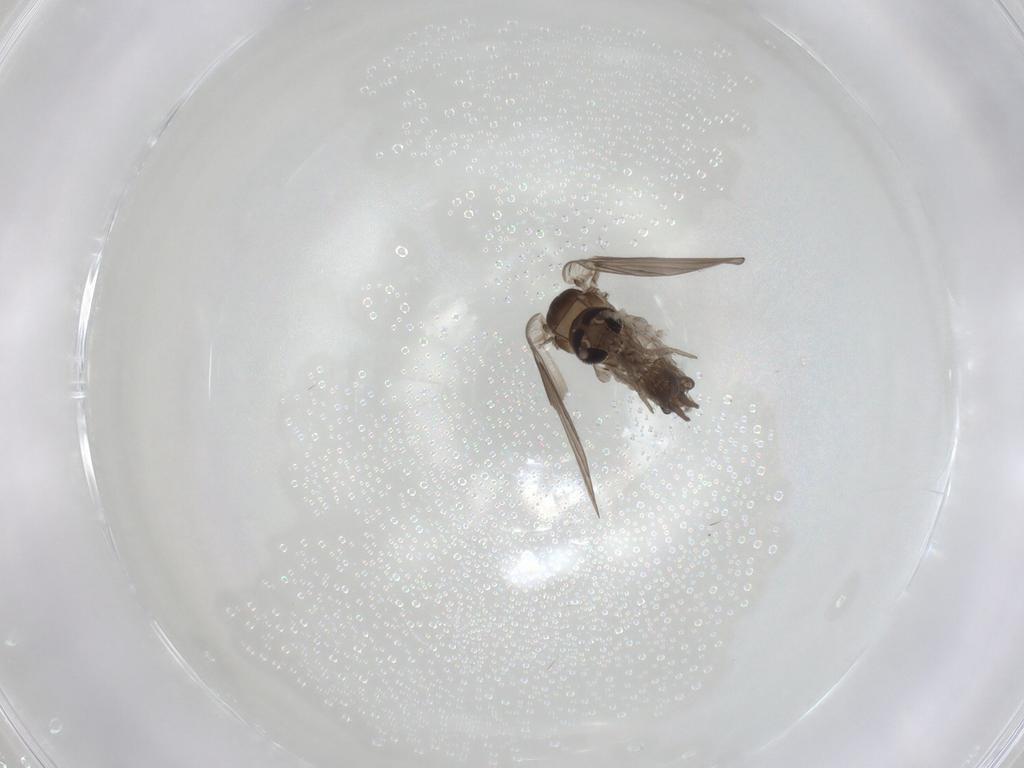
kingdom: Animalia
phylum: Arthropoda
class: Insecta
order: Diptera
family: Psychodidae
